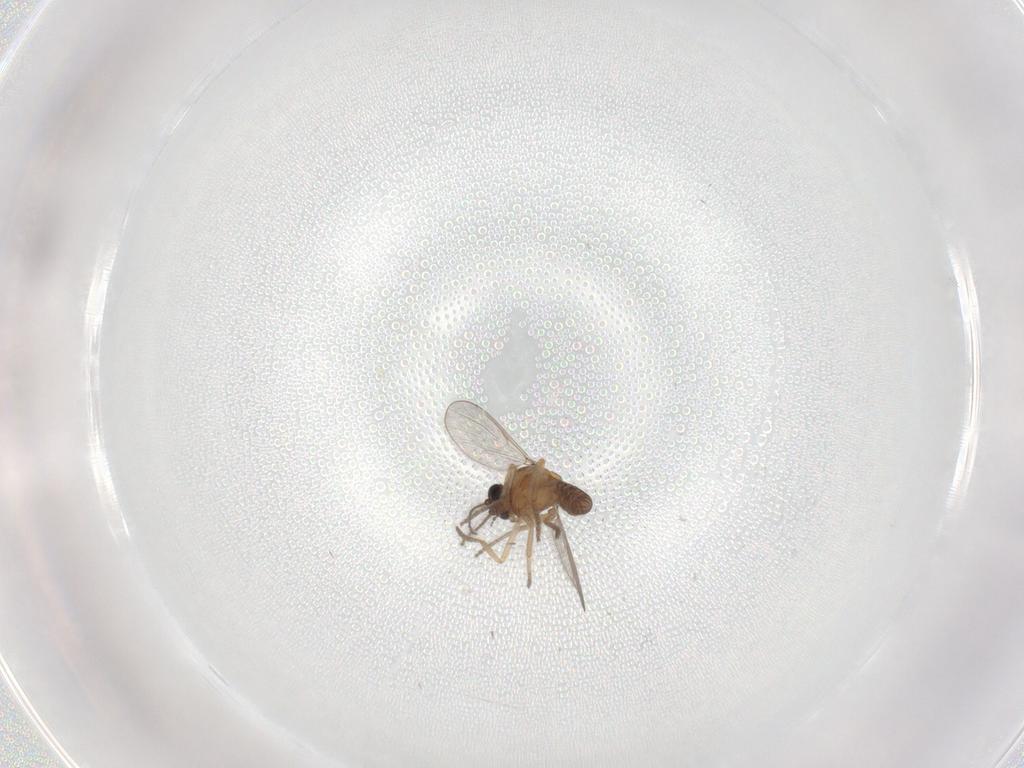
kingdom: Animalia
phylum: Arthropoda
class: Insecta
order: Diptera
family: Ceratopogonidae
